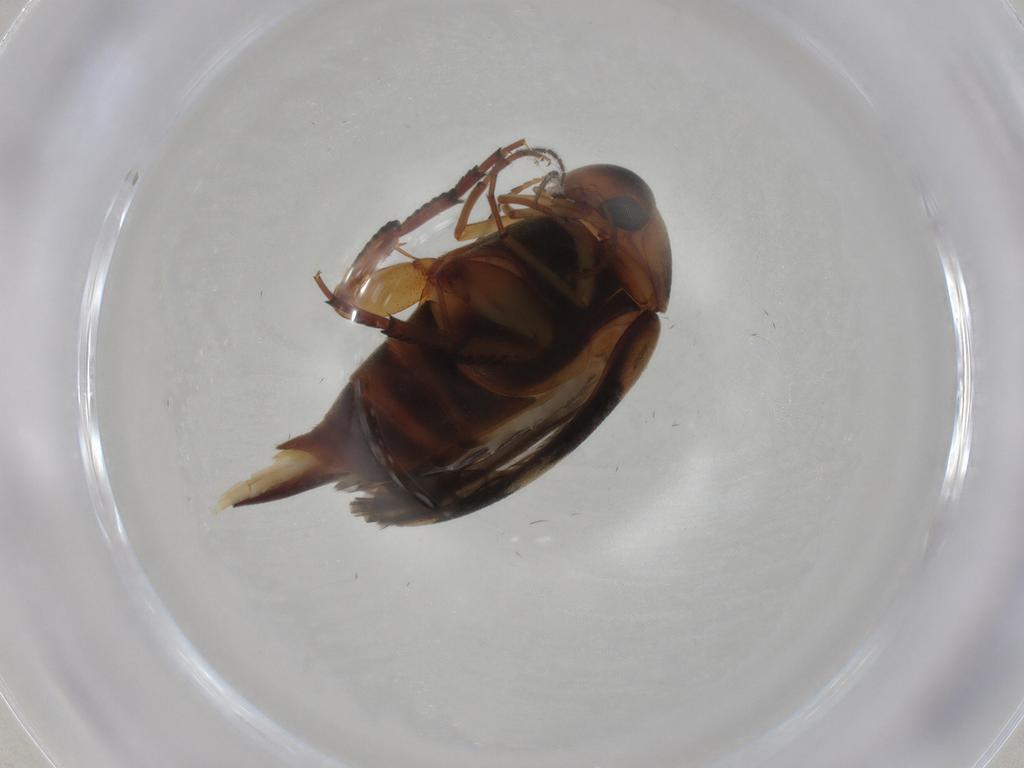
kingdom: Animalia
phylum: Arthropoda
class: Insecta
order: Coleoptera
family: Mordellidae
